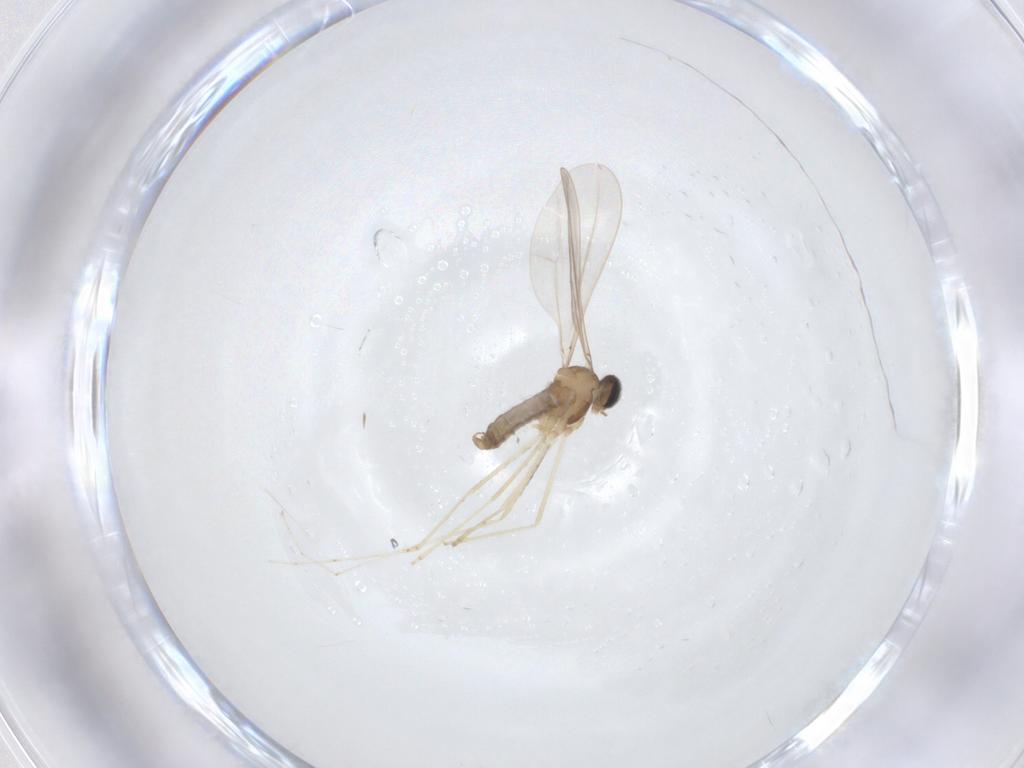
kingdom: Animalia
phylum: Arthropoda
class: Insecta
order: Diptera
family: Cecidomyiidae
